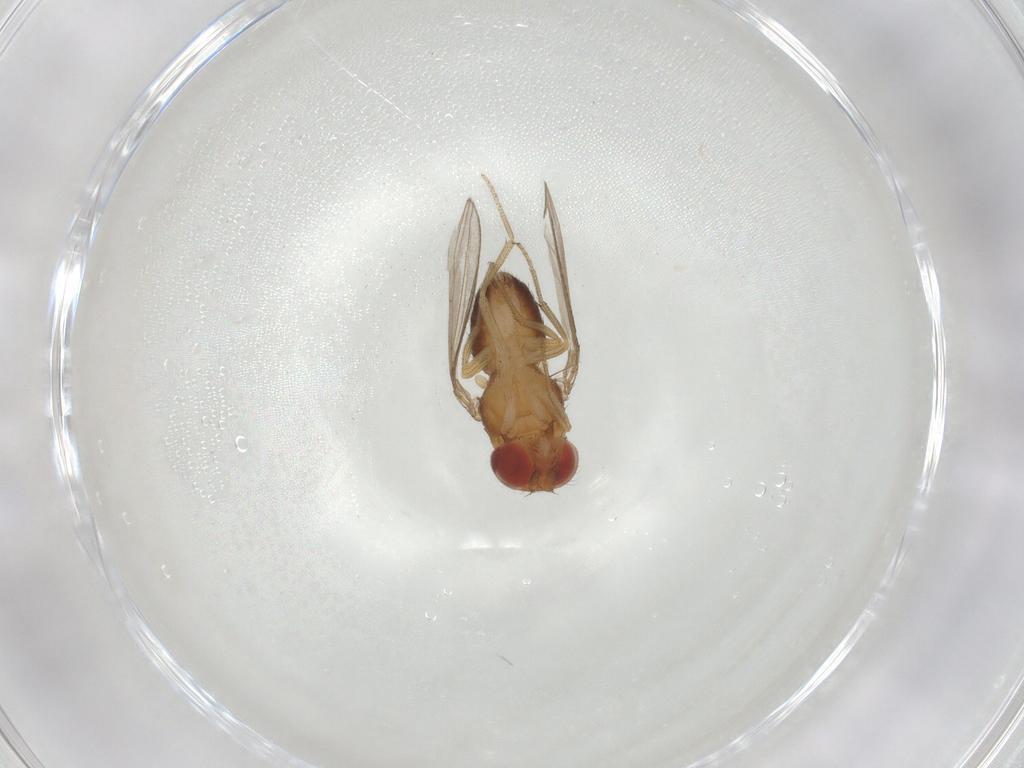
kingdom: Animalia
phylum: Arthropoda
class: Insecta
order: Diptera
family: Drosophilidae
